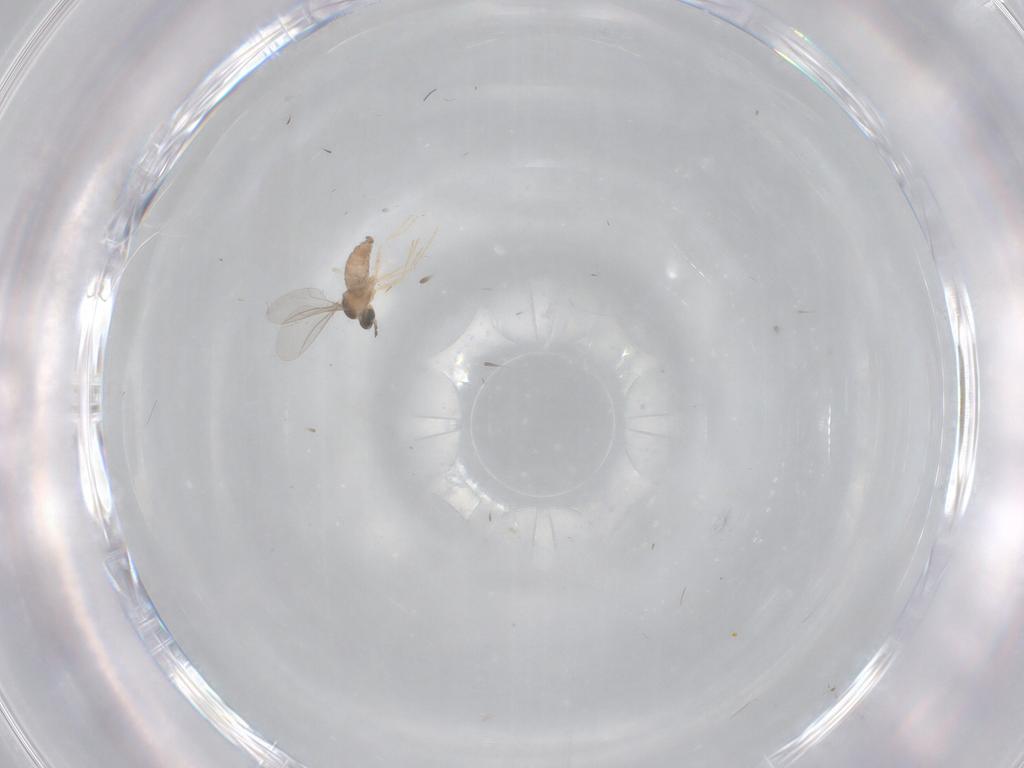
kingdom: Animalia
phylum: Arthropoda
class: Insecta
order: Diptera
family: Cecidomyiidae
